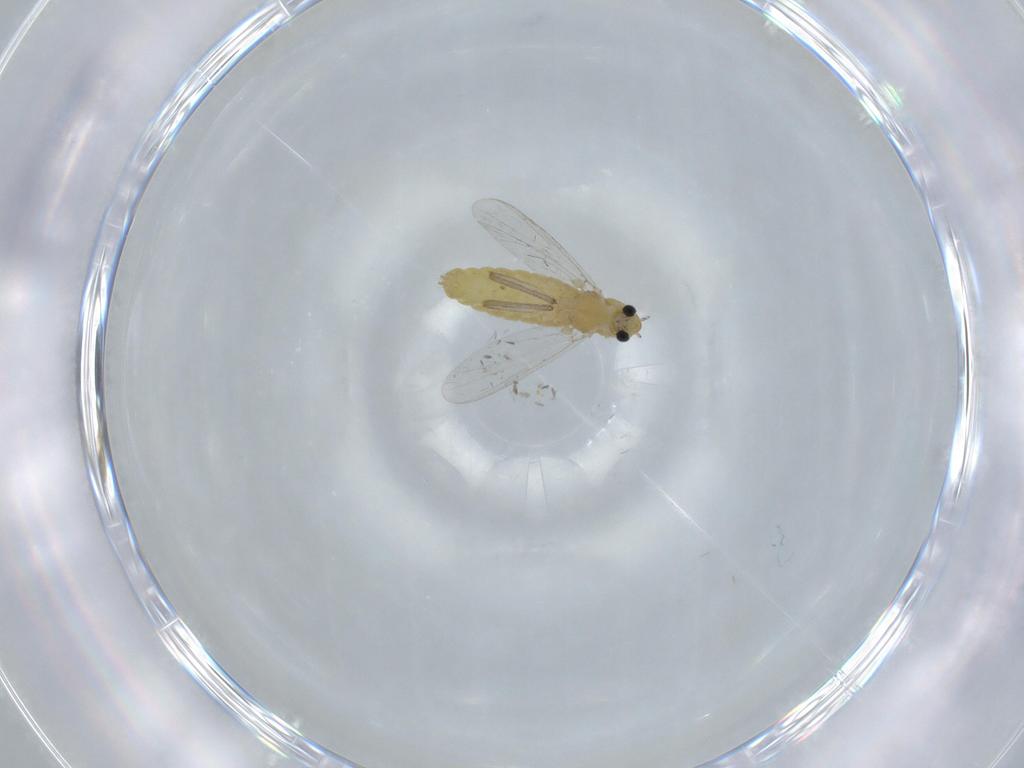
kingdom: Animalia
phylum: Arthropoda
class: Insecta
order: Diptera
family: Chironomidae
